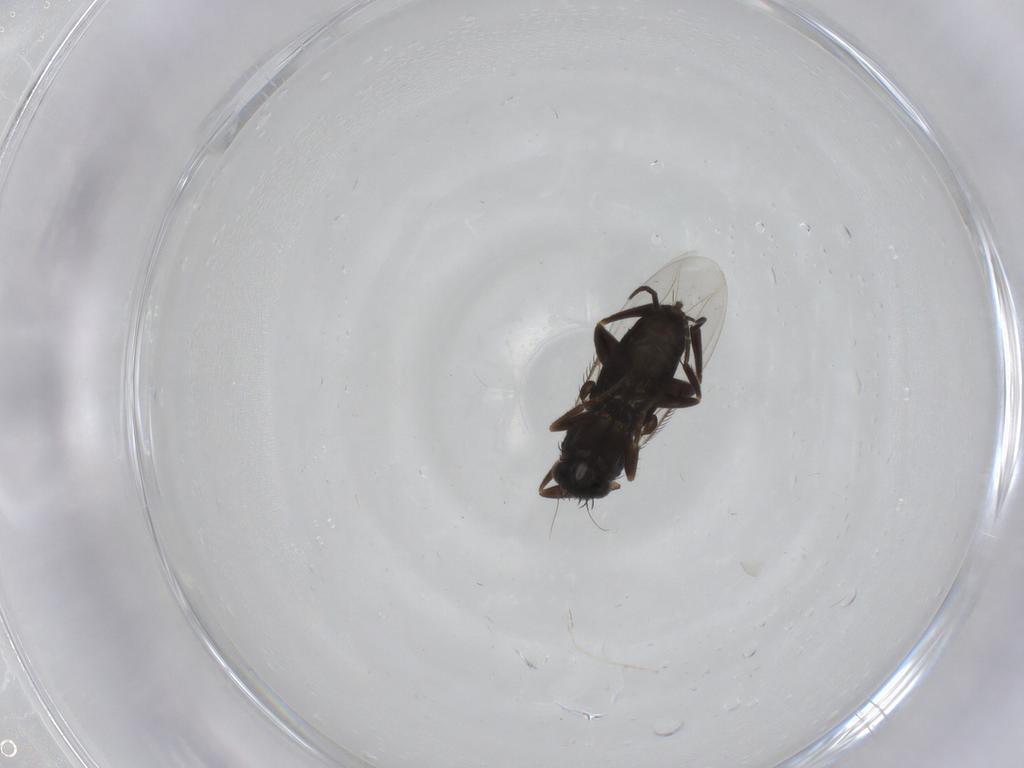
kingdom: Animalia
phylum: Arthropoda
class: Insecta
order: Diptera
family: Phoridae
